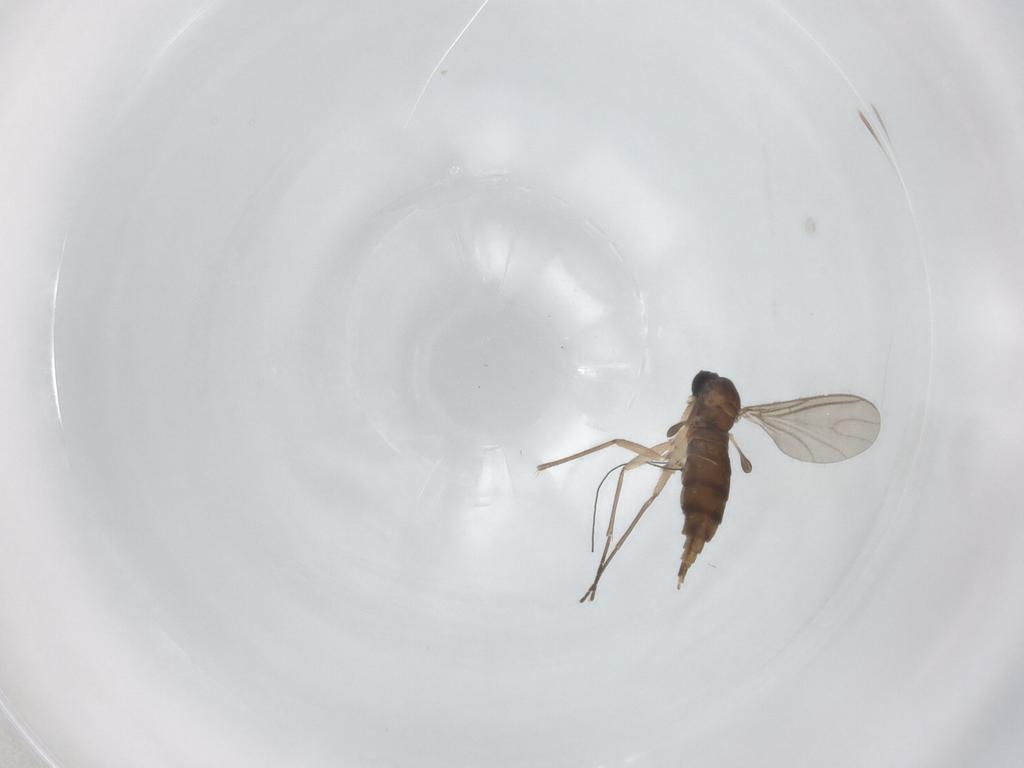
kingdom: Animalia
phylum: Arthropoda
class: Insecta
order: Diptera
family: Sciaridae
